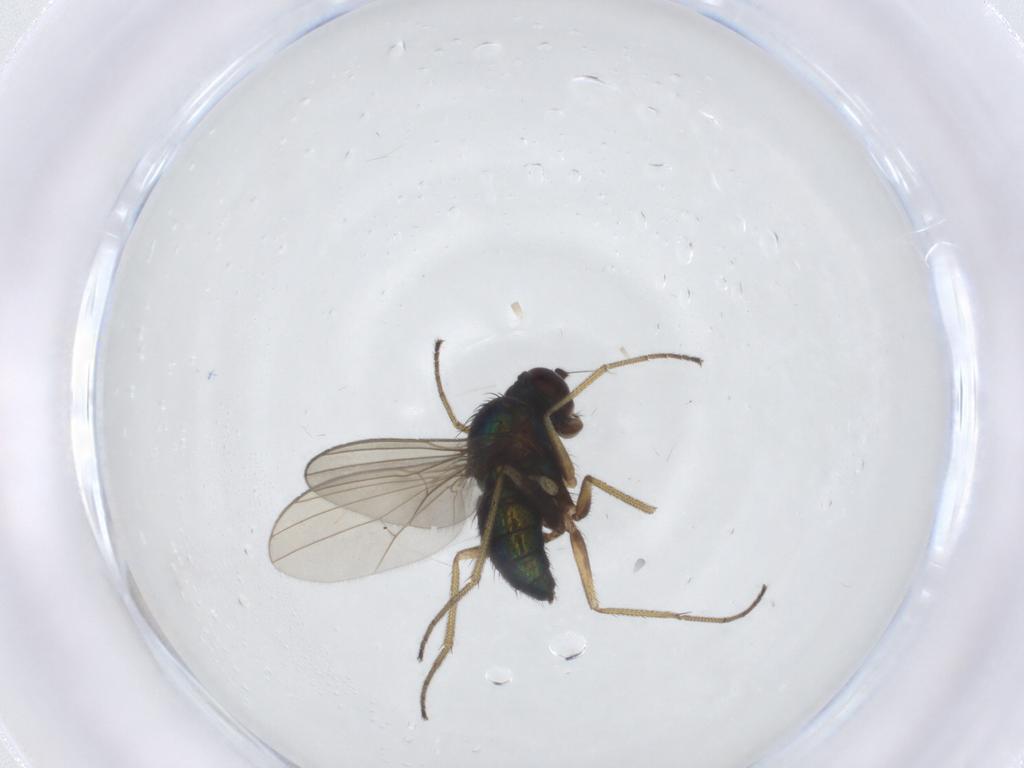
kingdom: Animalia
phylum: Arthropoda
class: Insecta
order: Diptera
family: Dolichopodidae
